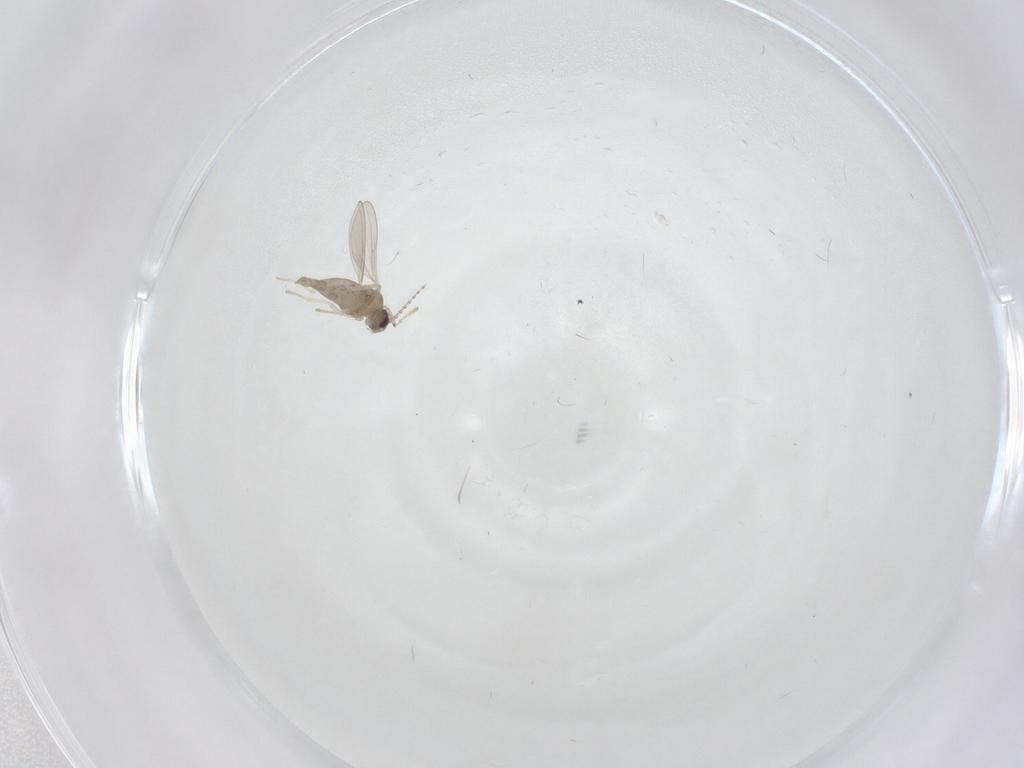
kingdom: Animalia
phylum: Arthropoda
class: Insecta
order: Diptera
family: Cecidomyiidae
